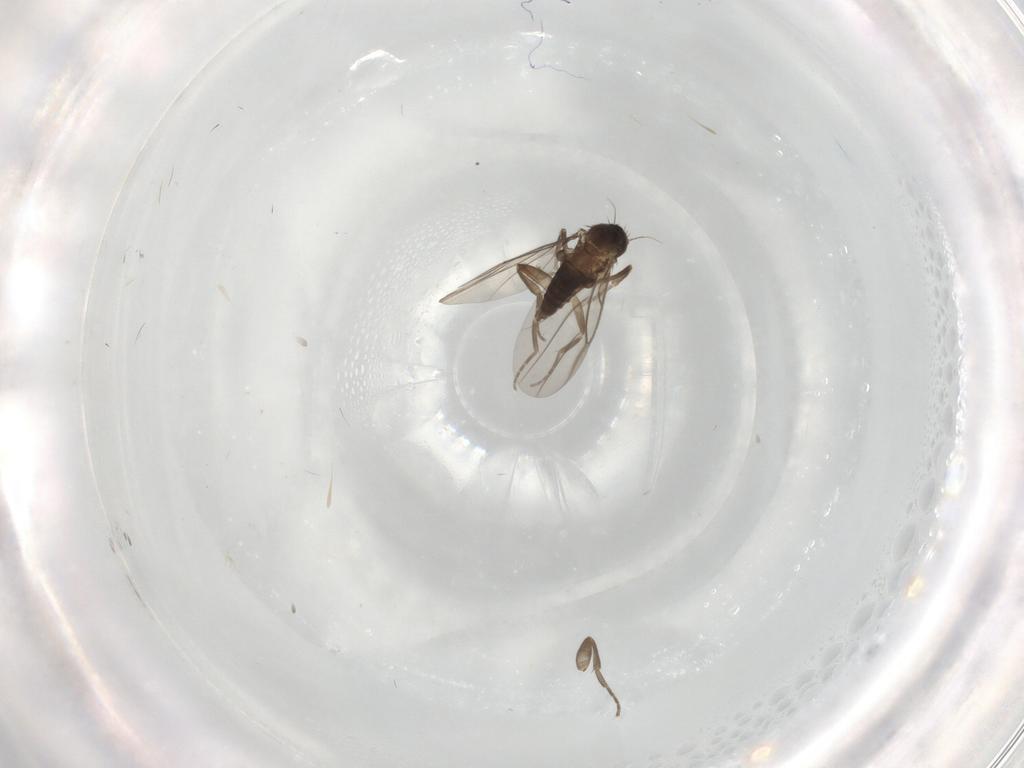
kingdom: Animalia
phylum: Arthropoda
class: Insecta
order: Diptera
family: Phoridae
